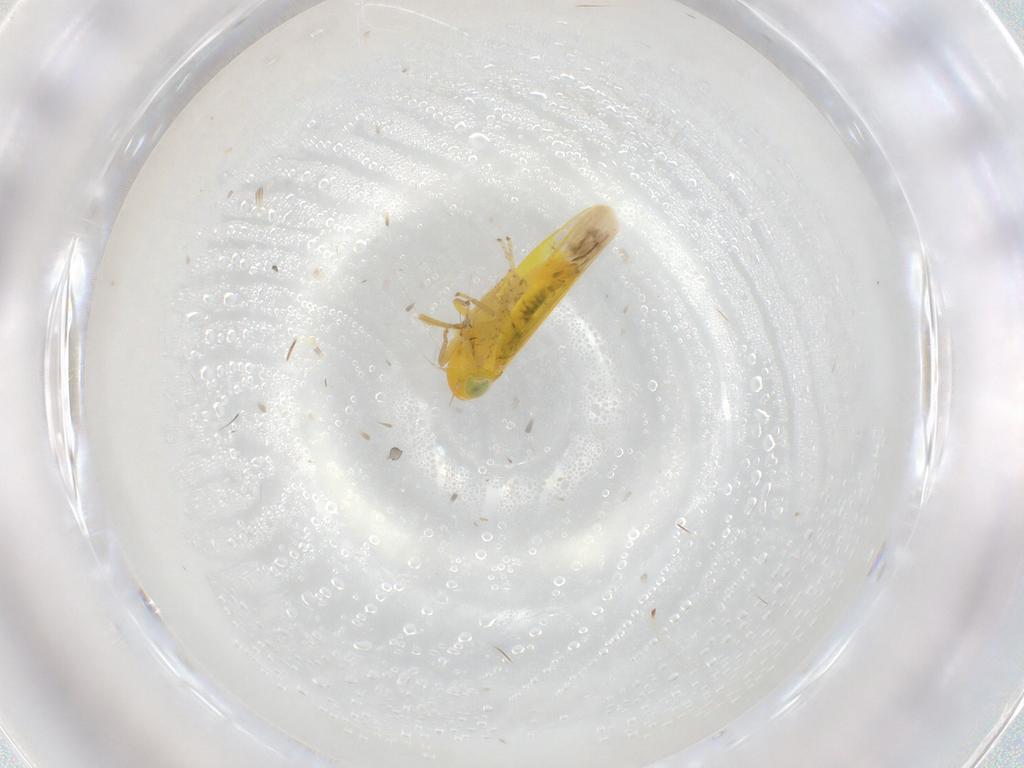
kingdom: Animalia
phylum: Arthropoda
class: Insecta
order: Hemiptera
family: Cicadellidae
